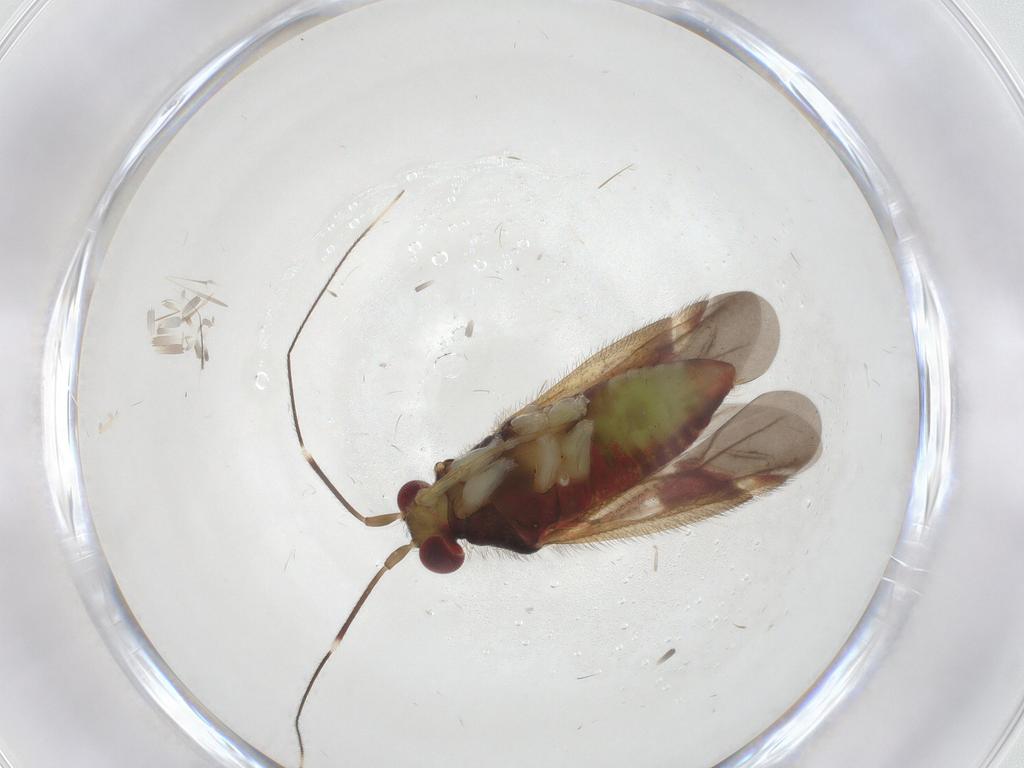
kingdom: Animalia
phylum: Arthropoda
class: Insecta
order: Hemiptera
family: Miridae
